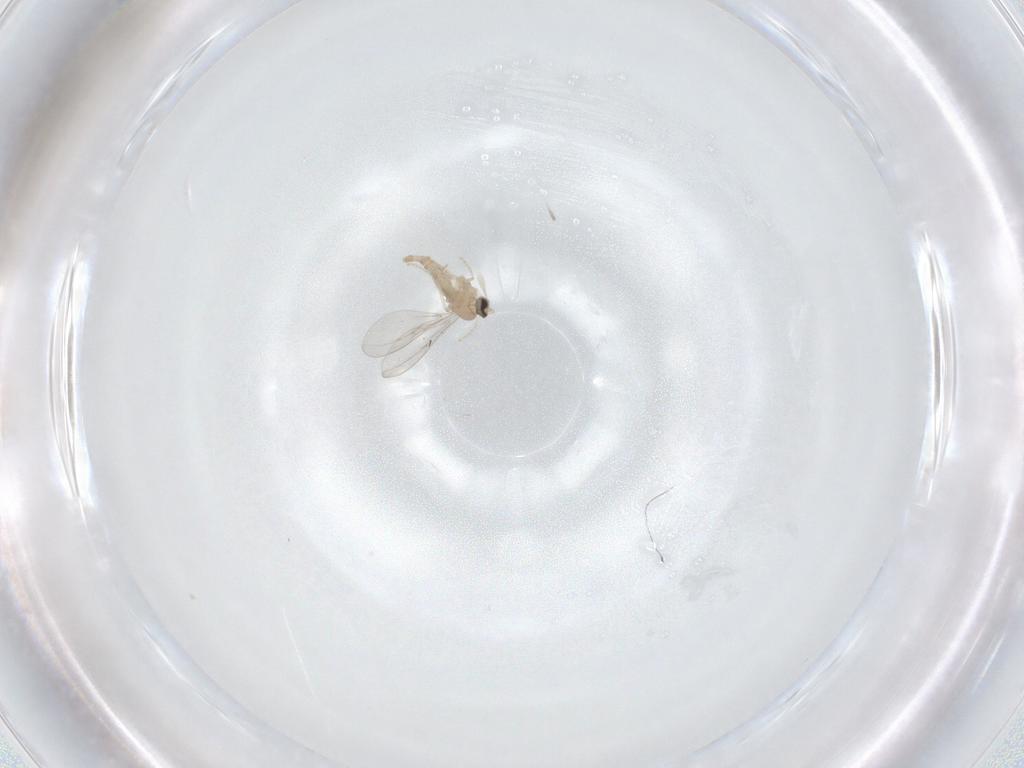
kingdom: Animalia
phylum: Arthropoda
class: Insecta
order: Diptera
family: Cecidomyiidae
